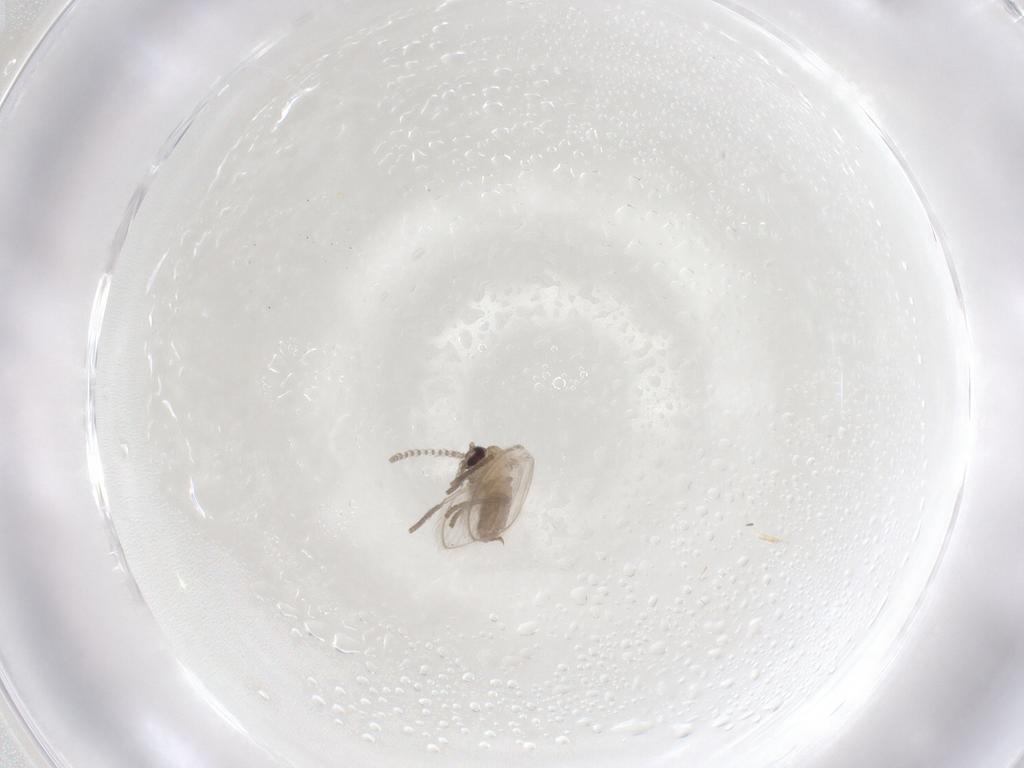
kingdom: Animalia
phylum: Arthropoda
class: Insecta
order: Diptera
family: Psychodidae
